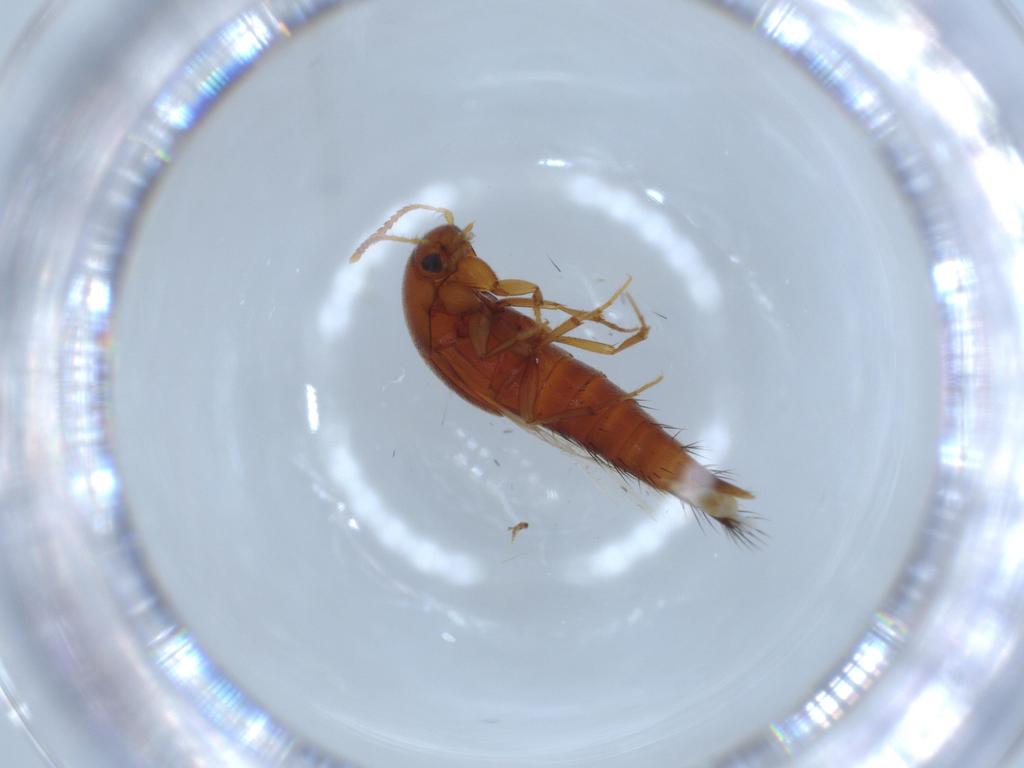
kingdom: Animalia
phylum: Arthropoda
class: Insecta
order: Coleoptera
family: Staphylinidae
